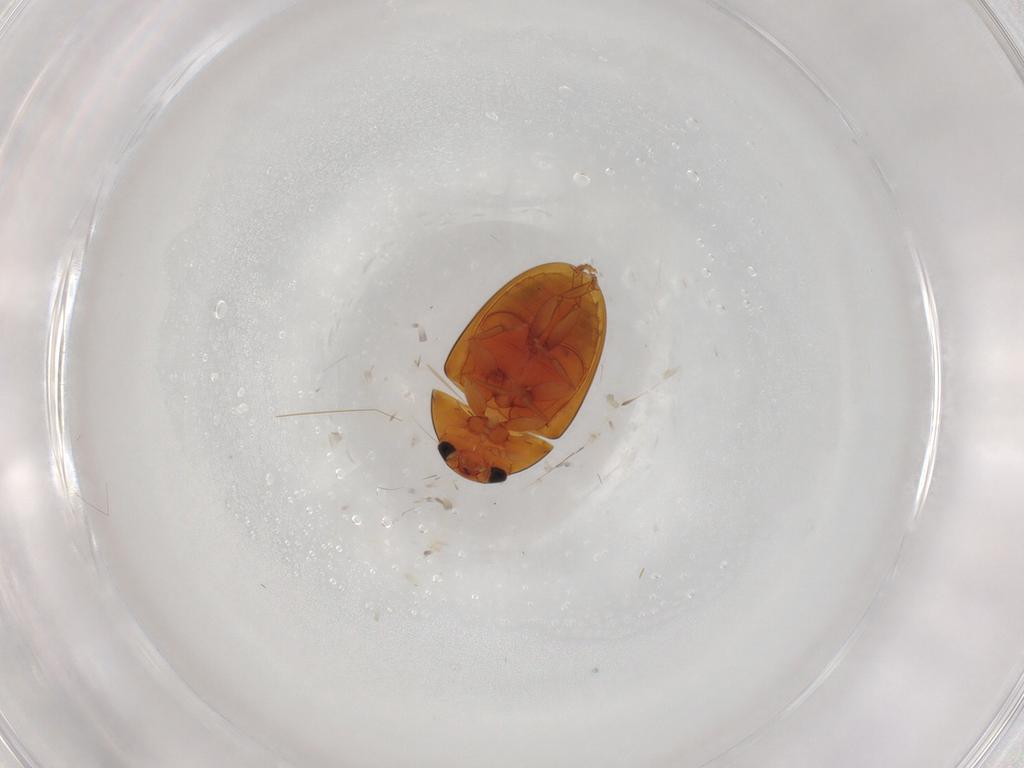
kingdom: Animalia
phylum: Arthropoda
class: Insecta
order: Coleoptera
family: Phalacridae
